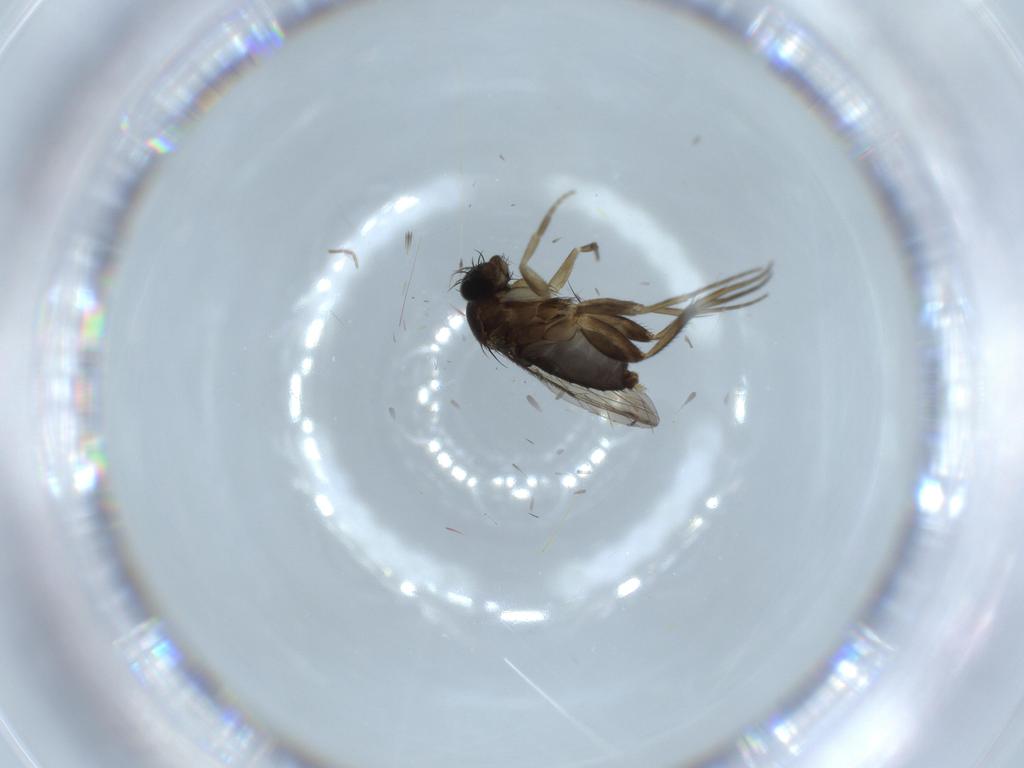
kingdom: Animalia
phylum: Arthropoda
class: Insecta
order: Diptera
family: Phoridae
